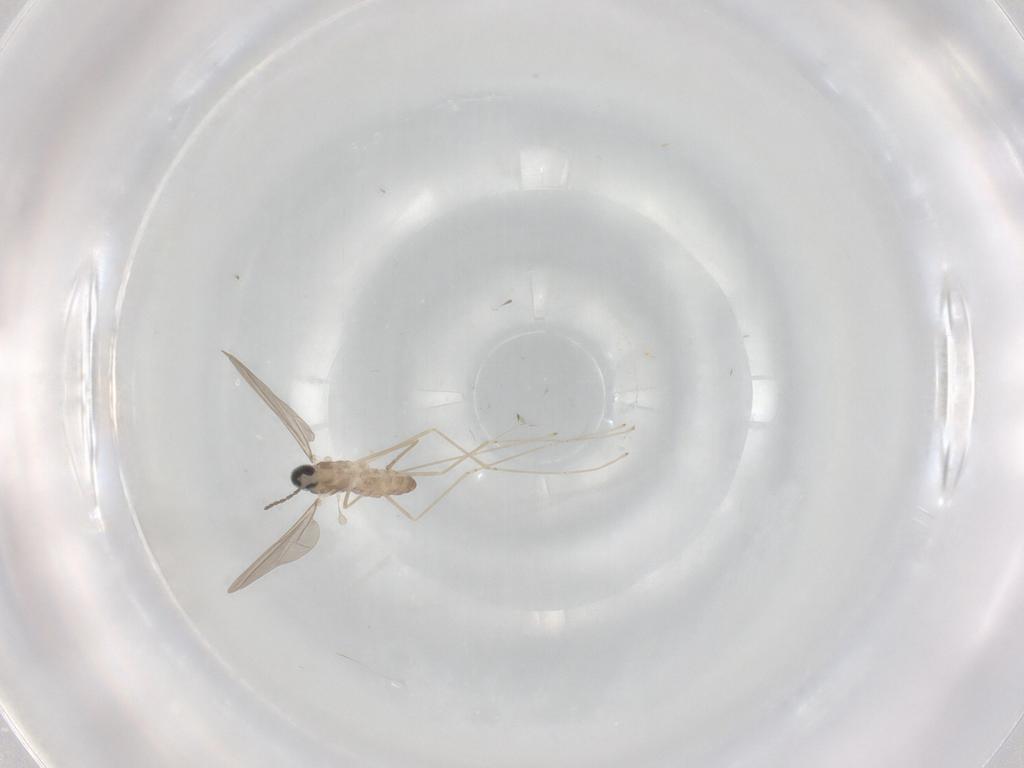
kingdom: Animalia
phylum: Arthropoda
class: Insecta
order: Diptera
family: Cecidomyiidae
